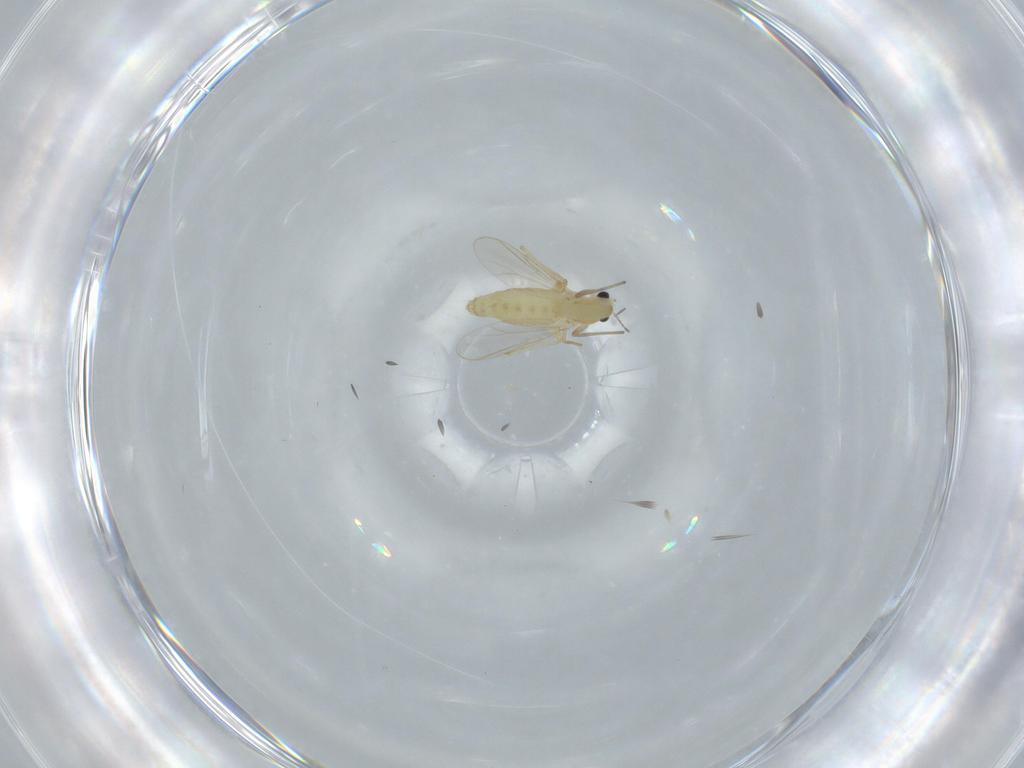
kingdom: Animalia
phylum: Arthropoda
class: Insecta
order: Diptera
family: Chironomidae
